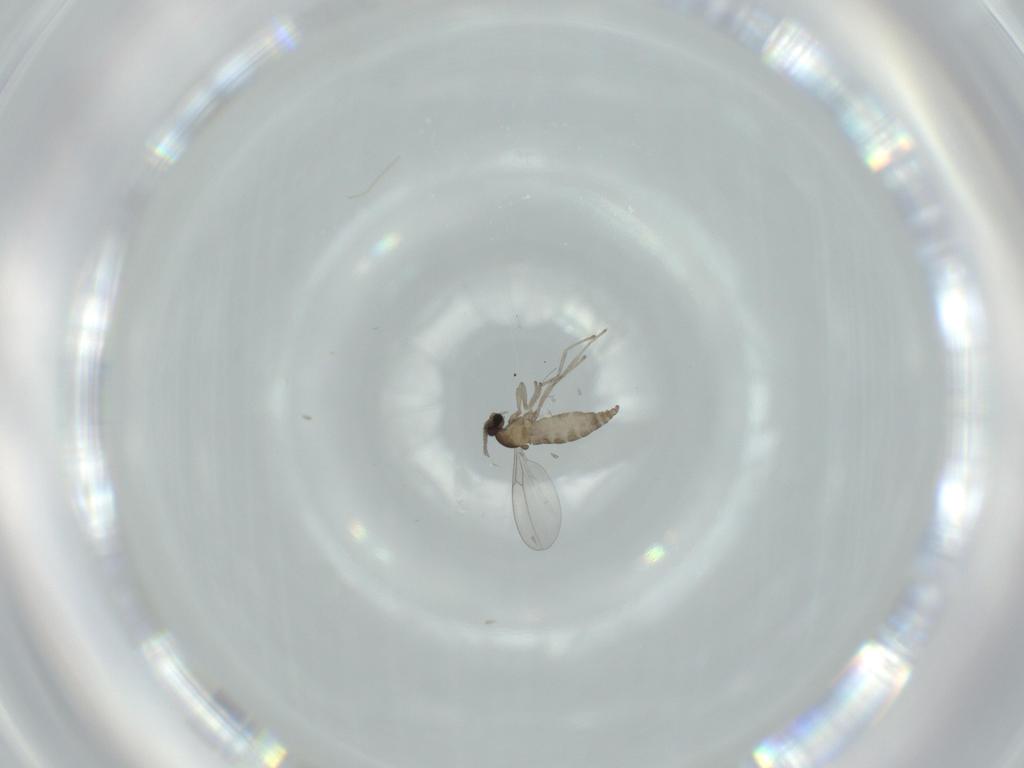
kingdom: Animalia
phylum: Arthropoda
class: Insecta
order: Diptera
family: Cecidomyiidae
